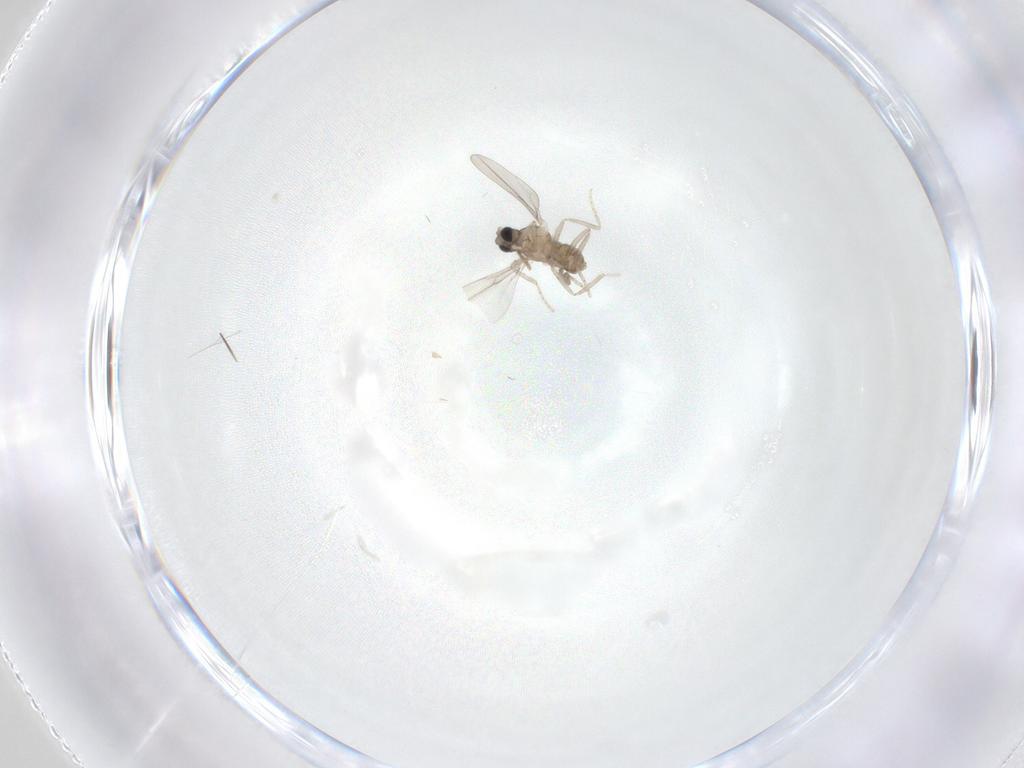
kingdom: Animalia
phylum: Arthropoda
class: Insecta
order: Diptera
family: Cecidomyiidae
